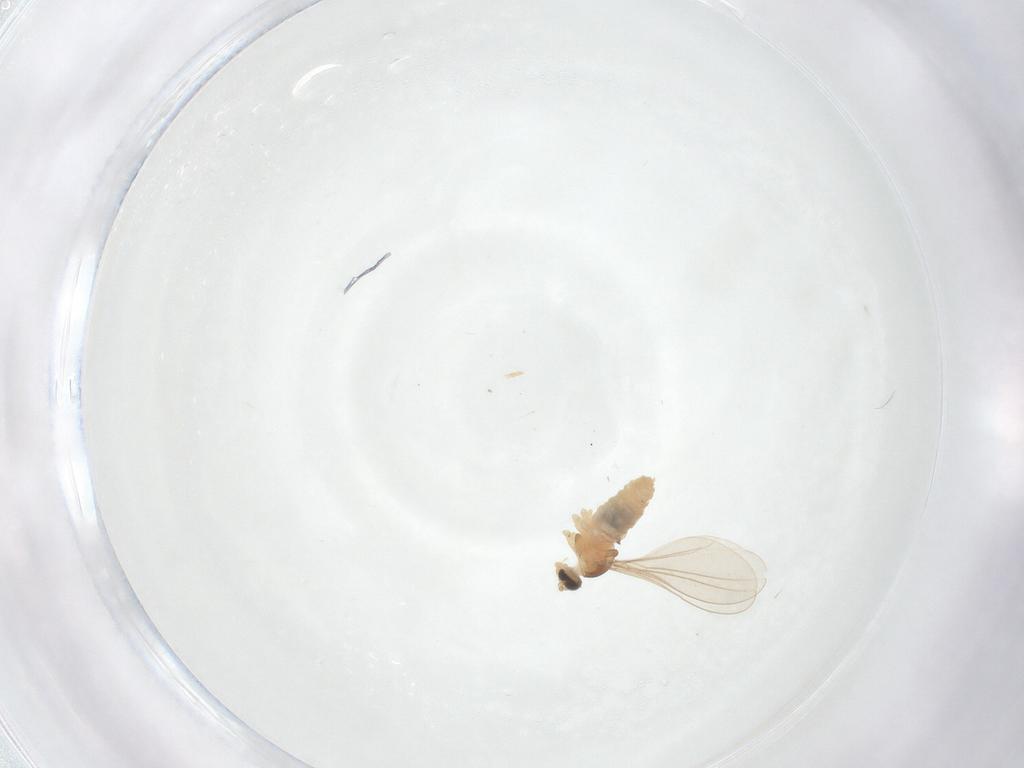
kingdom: Animalia
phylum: Arthropoda
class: Insecta
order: Diptera
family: Cecidomyiidae
